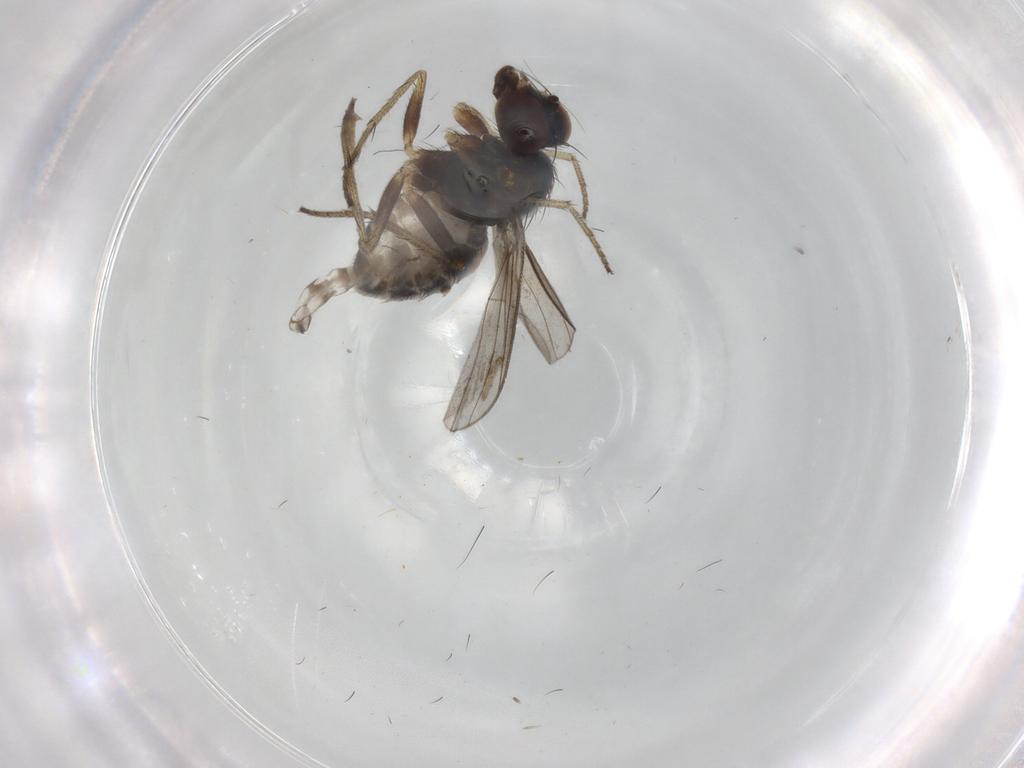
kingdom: Animalia
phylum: Arthropoda
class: Insecta
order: Diptera
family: Dolichopodidae
